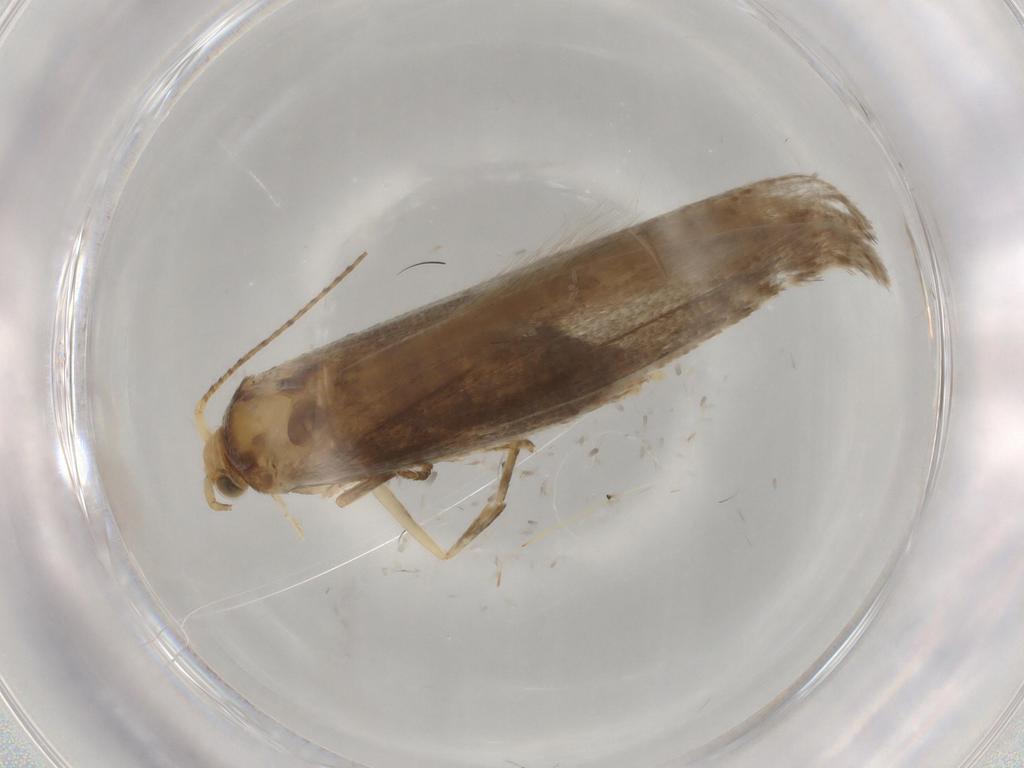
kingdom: Animalia
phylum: Arthropoda
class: Insecta
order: Lepidoptera
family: Argyresthiidae
